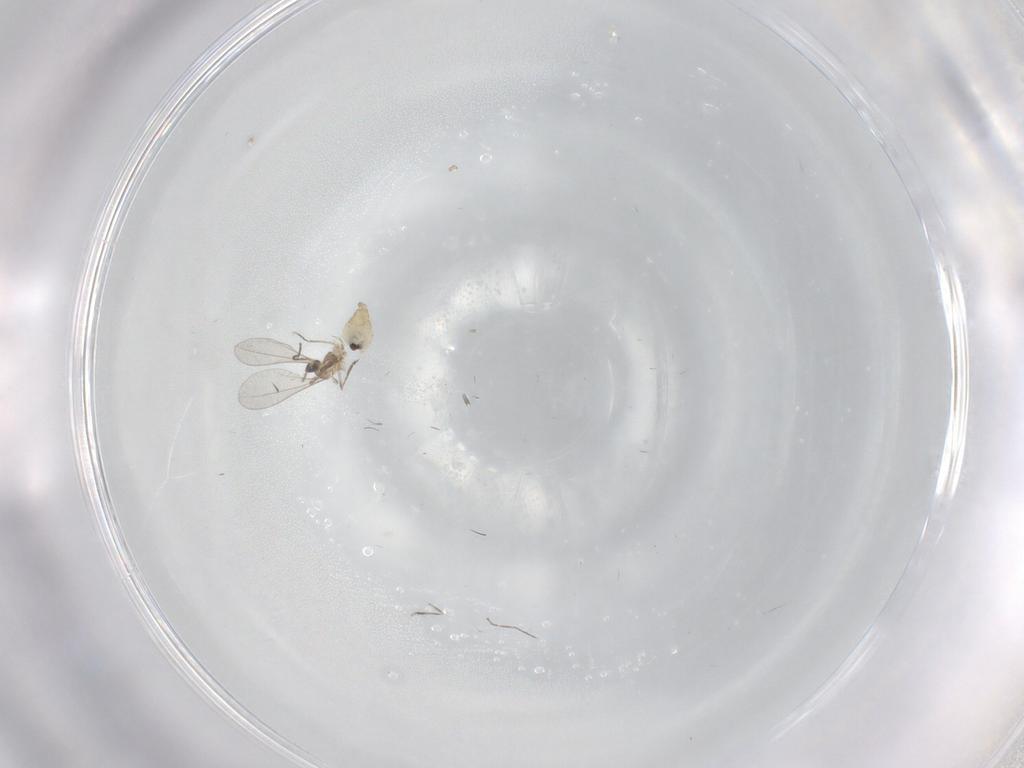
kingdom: Animalia
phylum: Arthropoda
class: Insecta
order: Diptera
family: Cecidomyiidae
